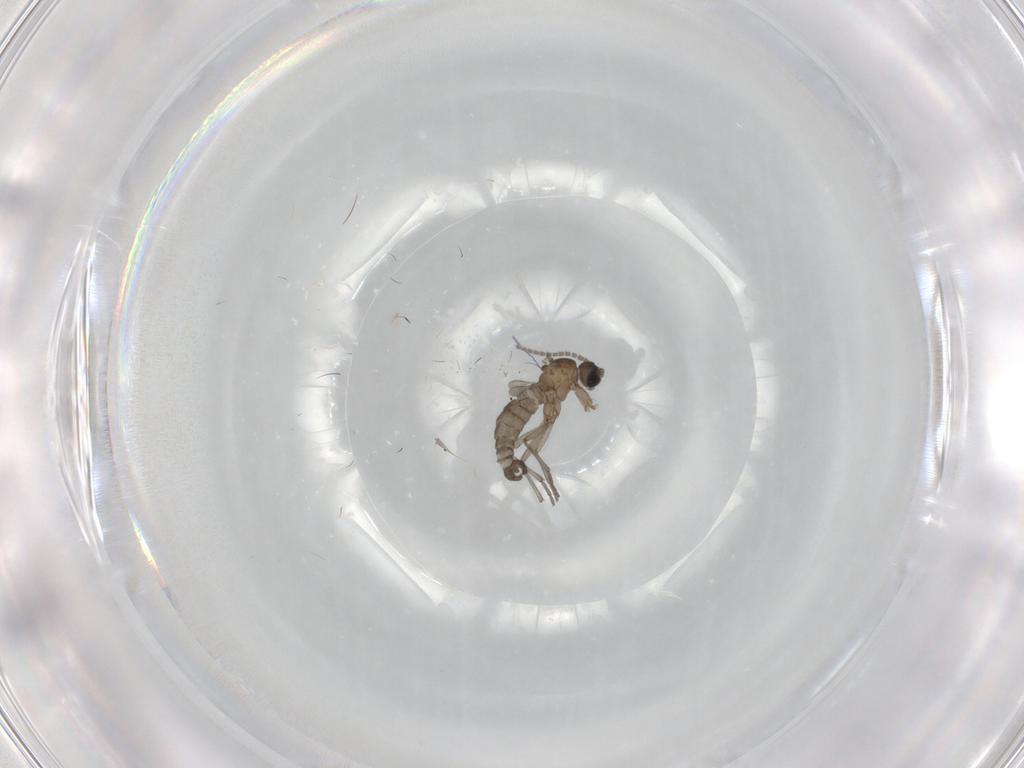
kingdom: Animalia
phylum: Arthropoda
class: Insecta
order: Diptera
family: Sciaridae
